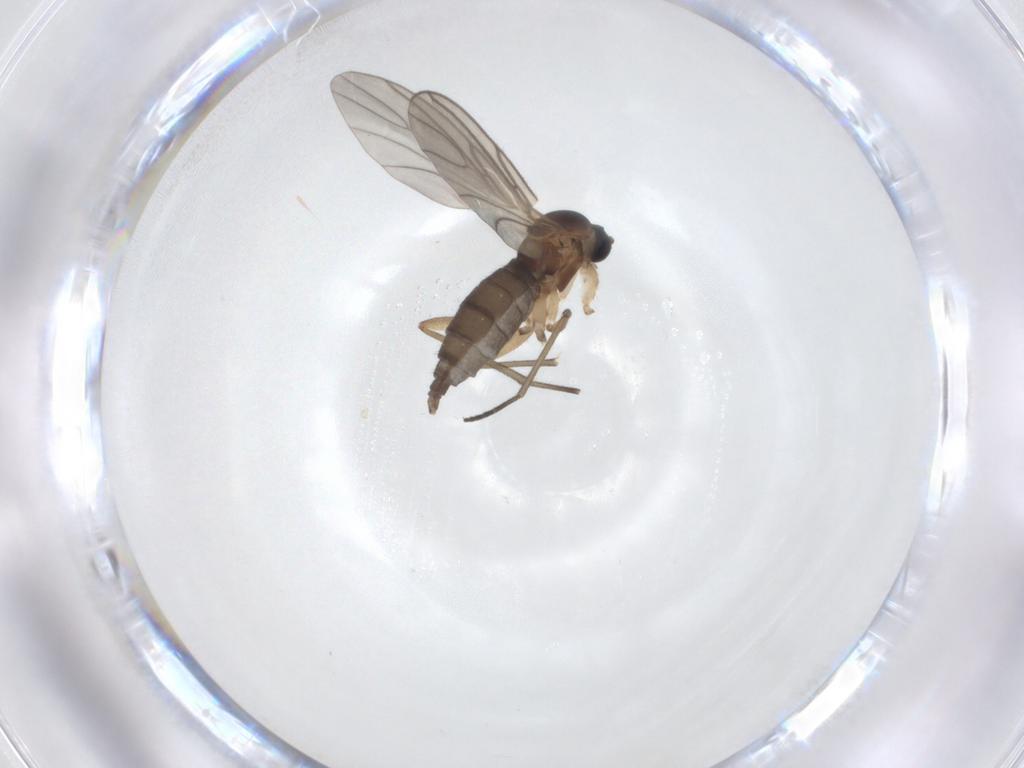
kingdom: Animalia
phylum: Arthropoda
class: Insecta
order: Diptera
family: Sciaridae
